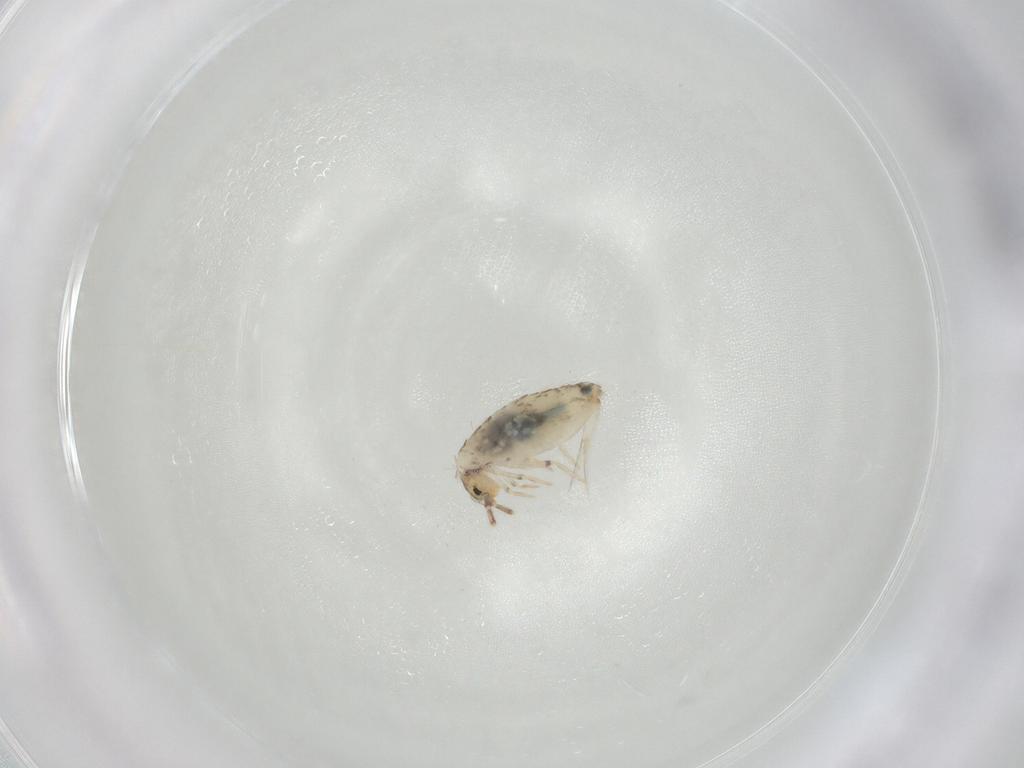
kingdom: Animalia
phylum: Arthropoda
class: Collembola
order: Entomobryomorpha
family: Entomobryidae
